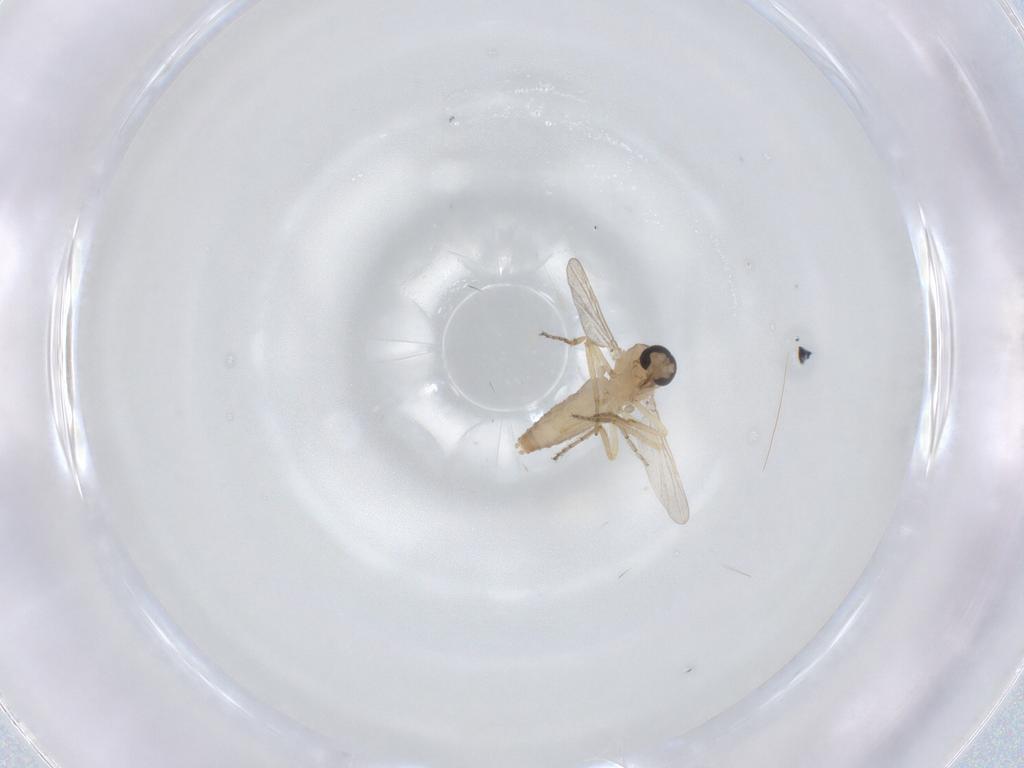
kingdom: Animalia
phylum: Arthropoda
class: Insecta
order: Diptera
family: Ceratopogonidae
